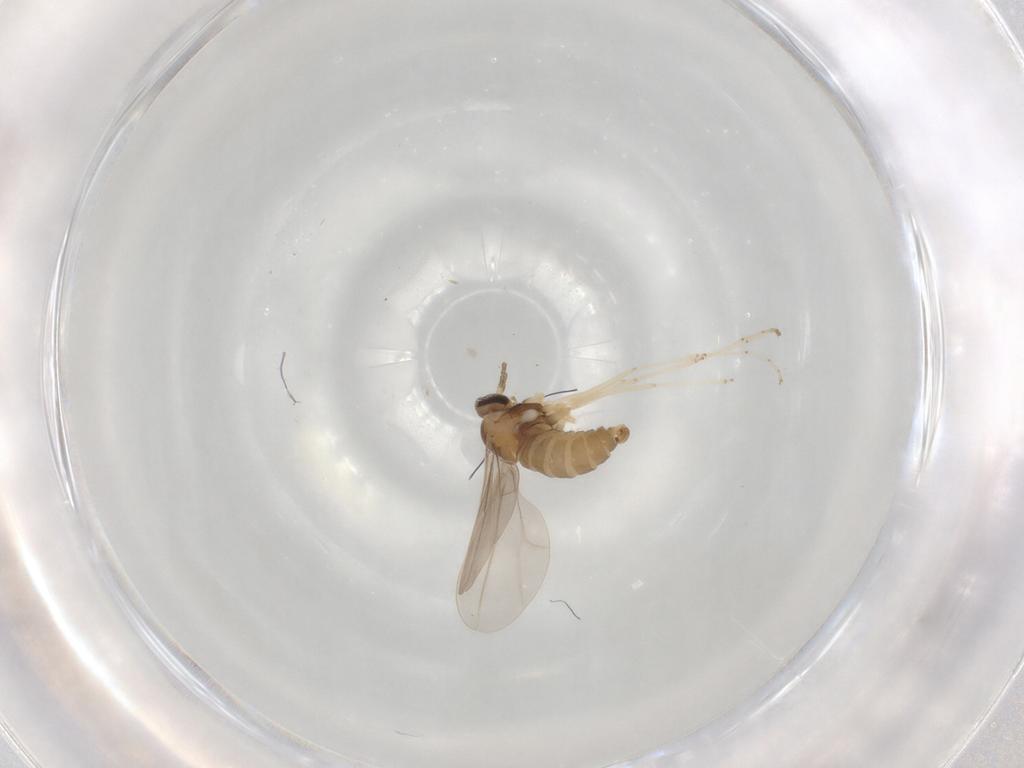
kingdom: Animalia
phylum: Arthropoda
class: Insecta
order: Diptera
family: Cecidomyiidae
